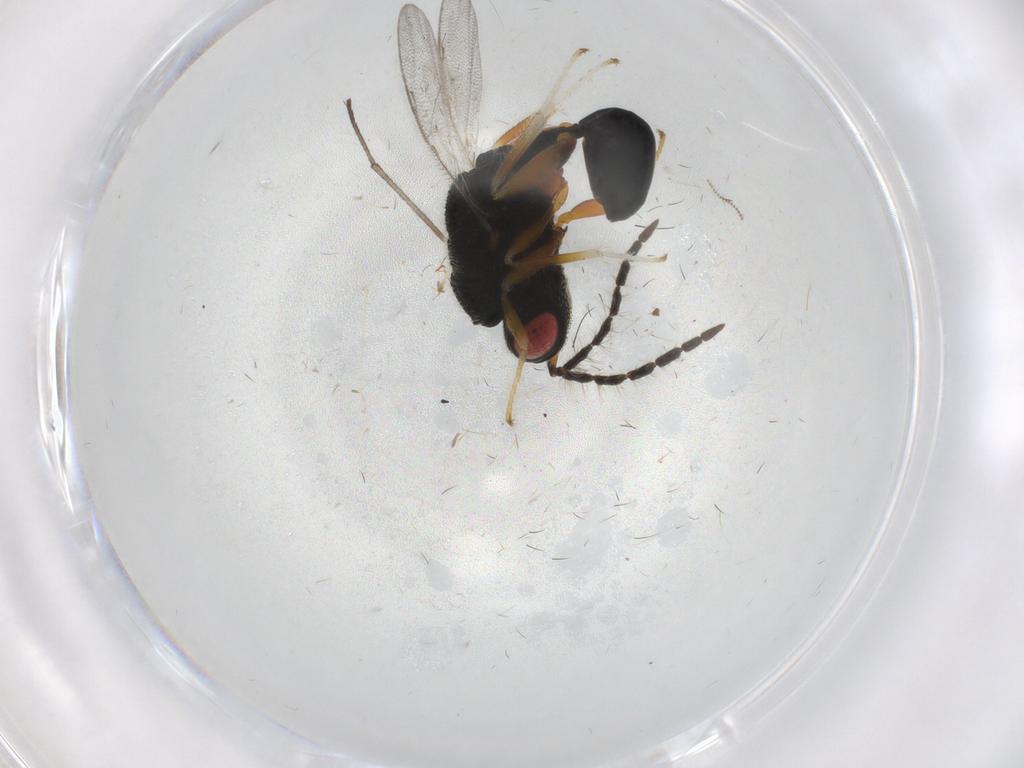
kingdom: Animalia
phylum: Arthropoda
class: Insecta
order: Hymenoptera
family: Eurytomidae
